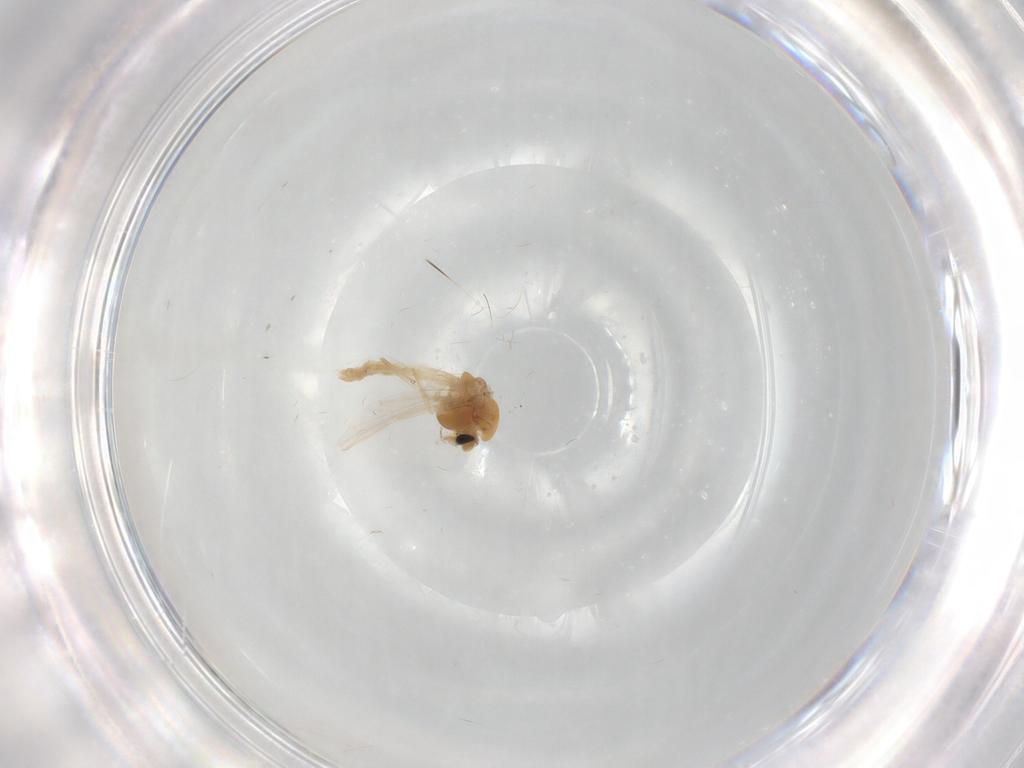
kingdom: Animalia
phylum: Arthropoda
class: Insecta
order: Diptera
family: Chironomidae
